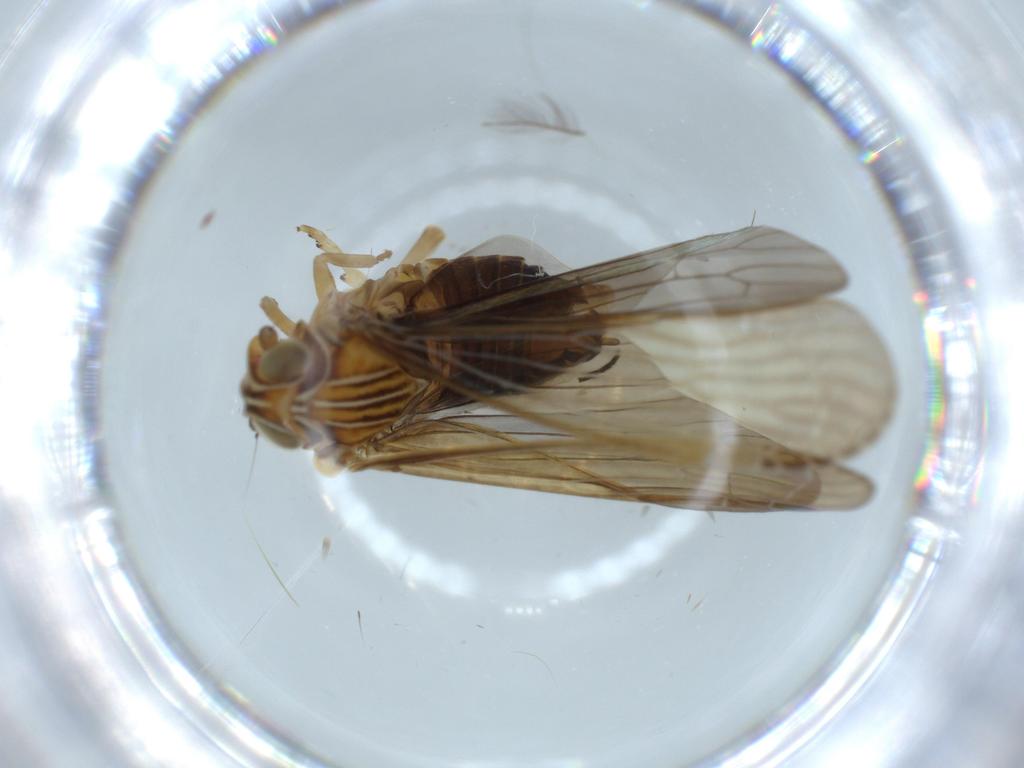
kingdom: Animalia
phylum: Arthropoda
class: Insecta
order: Hemiptera
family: Achilidae
